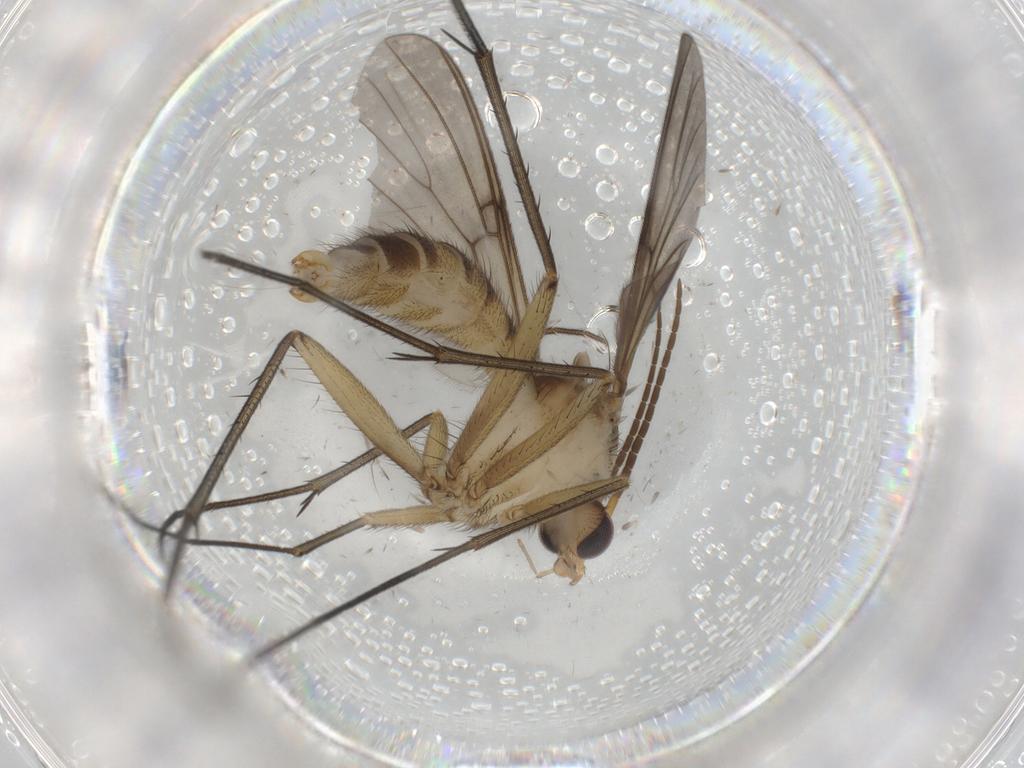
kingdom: Animalia
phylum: Arthropoda
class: Insecta
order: Diptera
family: Mycetophilidae
